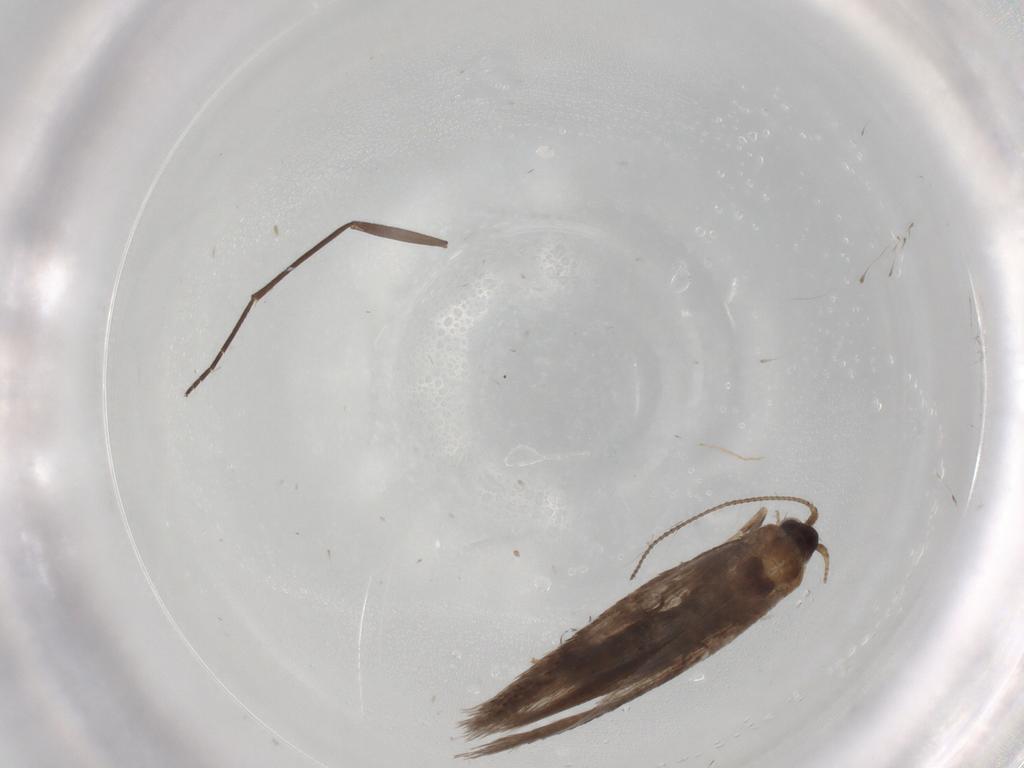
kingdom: Animalia
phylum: Arthropoda
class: Insecta
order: Lepidoptera
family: Nepticulidae
